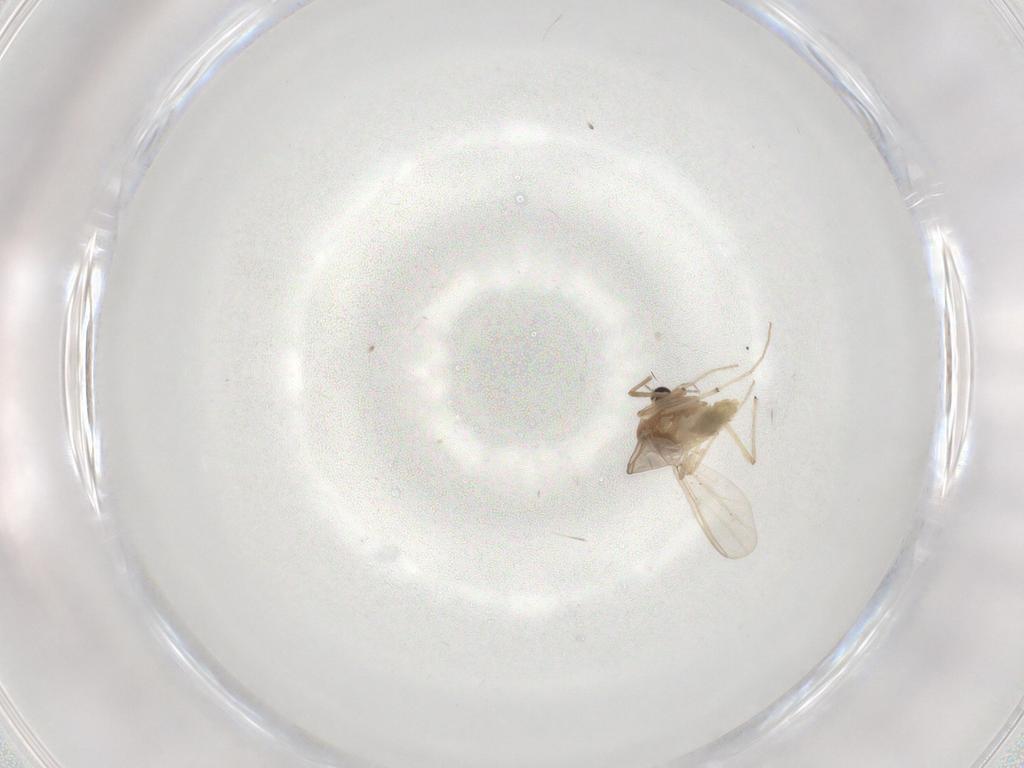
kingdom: Animalia
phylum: Arthropoda
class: Insecta
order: Diptera
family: Chironomidae
